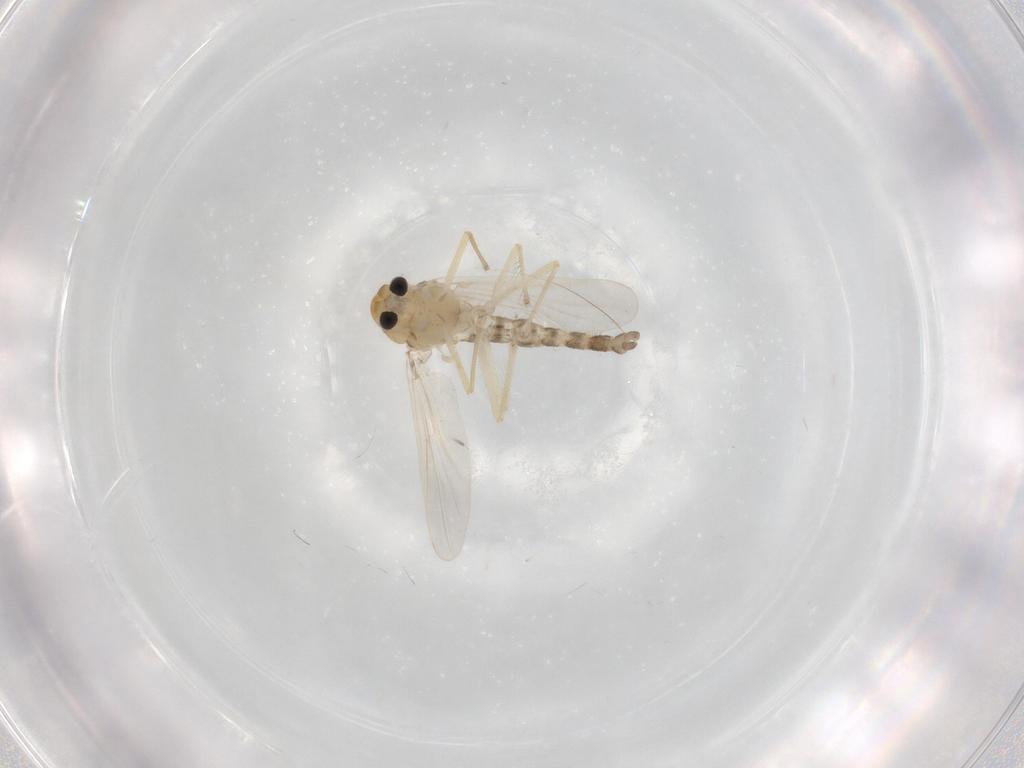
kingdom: Animalia
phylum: Arthropoda
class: Insecta
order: Diptera
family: Chironomidae
